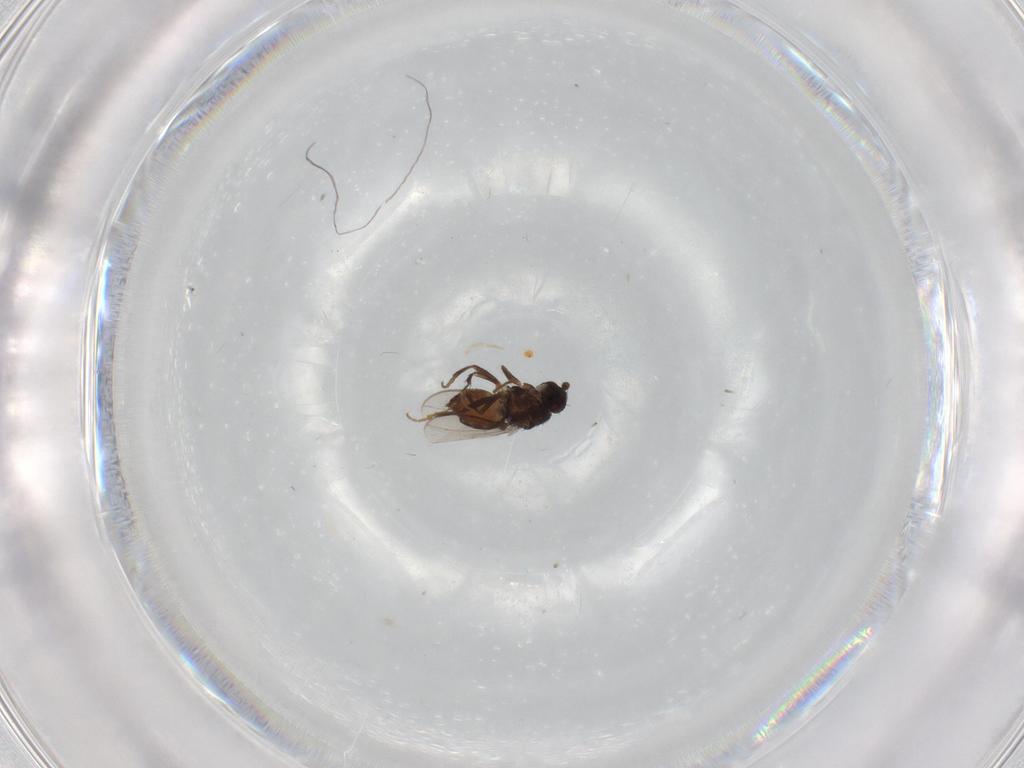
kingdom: Animalia
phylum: Arthropoda
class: Insecta
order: Diptera
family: Sphaeroceridae
